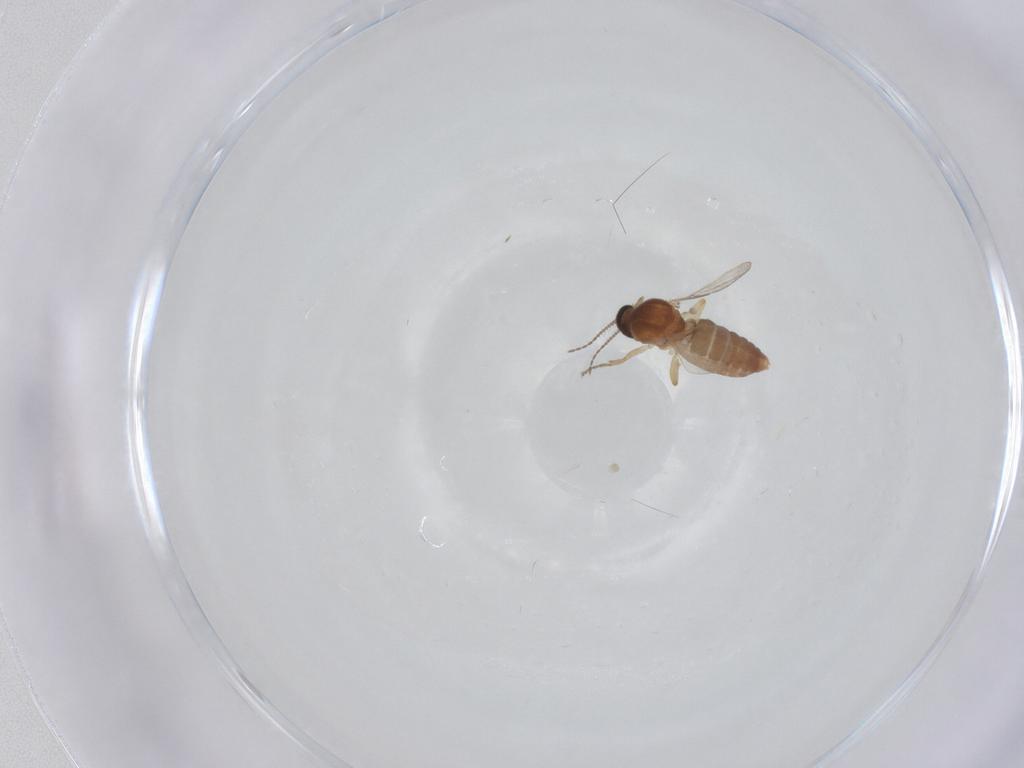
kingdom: Animalia
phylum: Arthropoda
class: Insecta
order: Diptera
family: Ceratopogonidae
